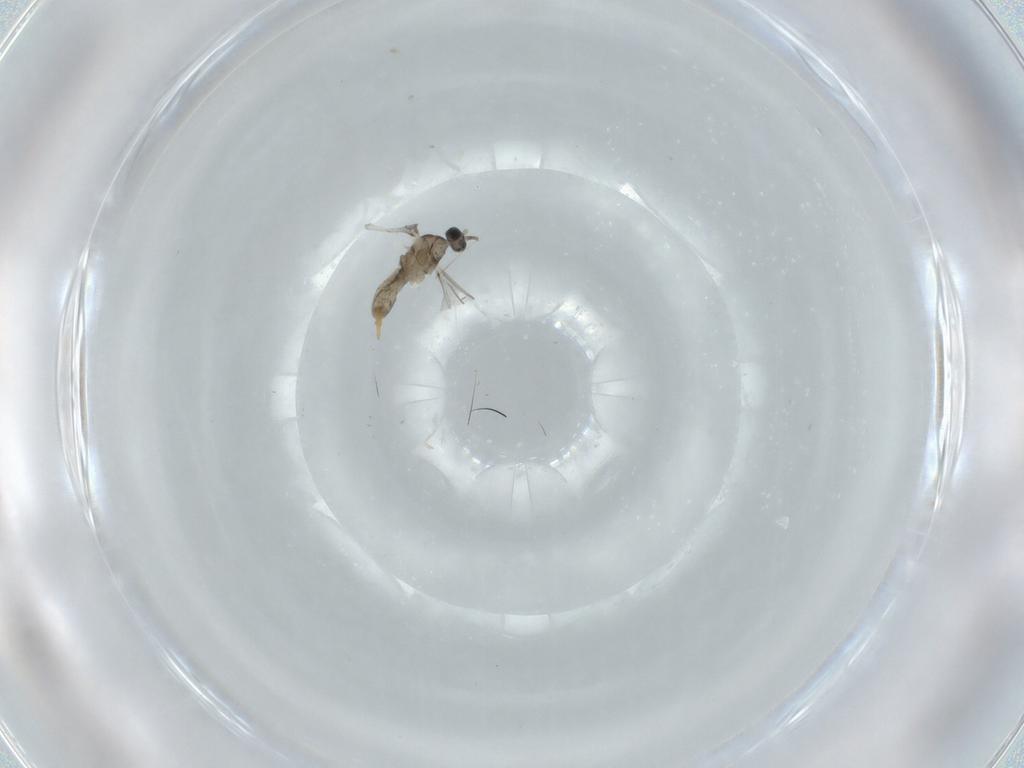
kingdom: Animalia
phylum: Arthropoda
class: Insecta
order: Diptera
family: Cecidomyiidae
